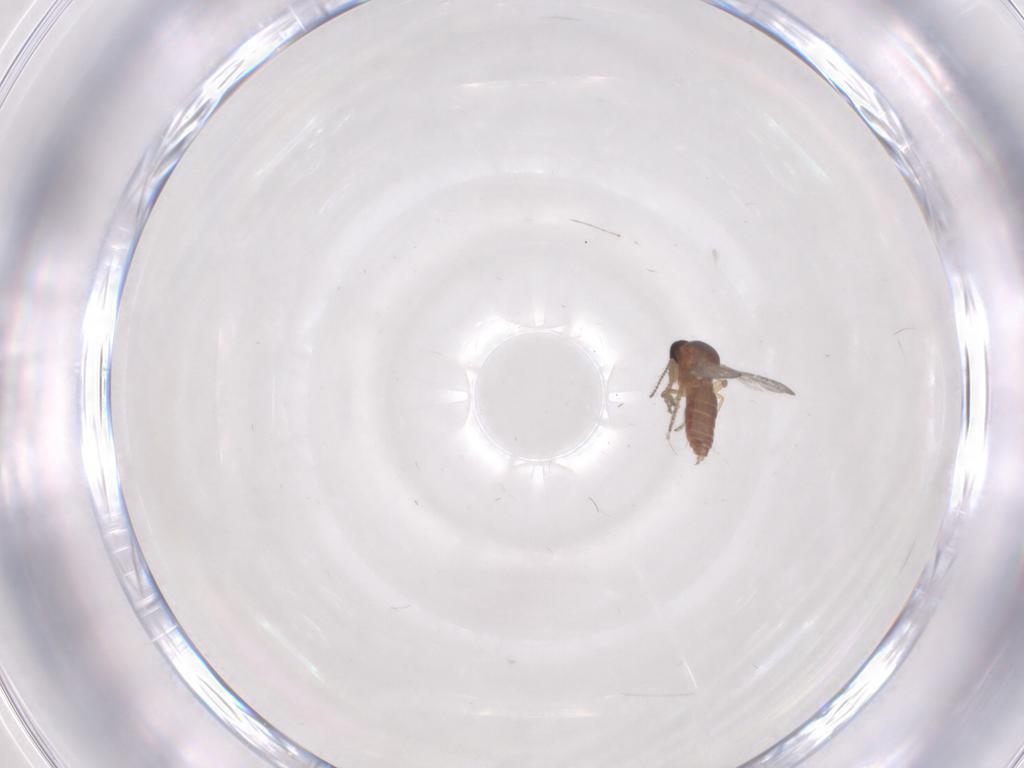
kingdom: Animalia
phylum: Arthropoda
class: Insecta
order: Diptera
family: Ceratopogonidae
